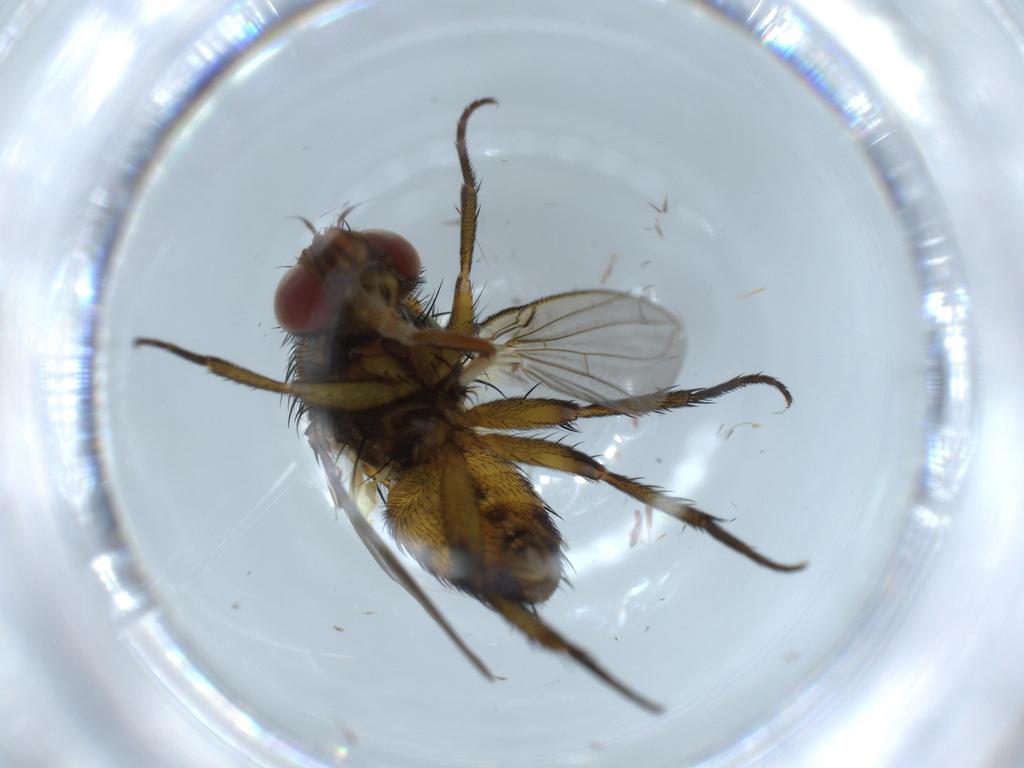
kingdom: Animalia
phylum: Arthropoda
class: Insecta
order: Diptera
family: Cecidomyiidae
